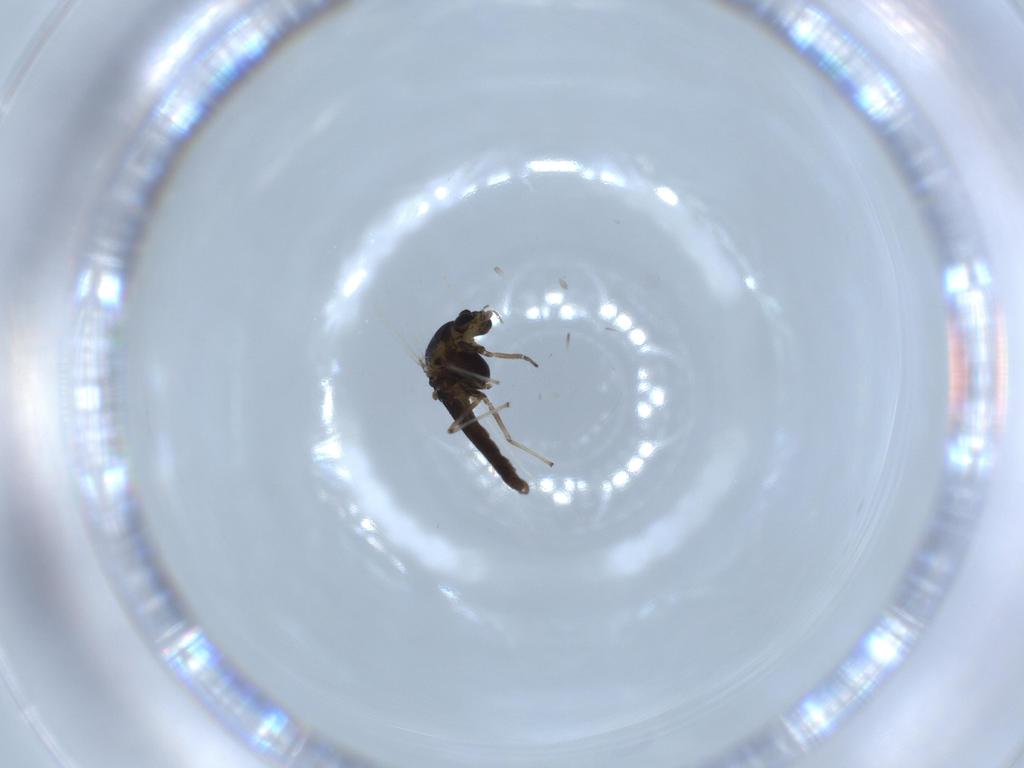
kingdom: Animalia
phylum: Arthropoda
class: Insecta
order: Diptera
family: Chironomidae
